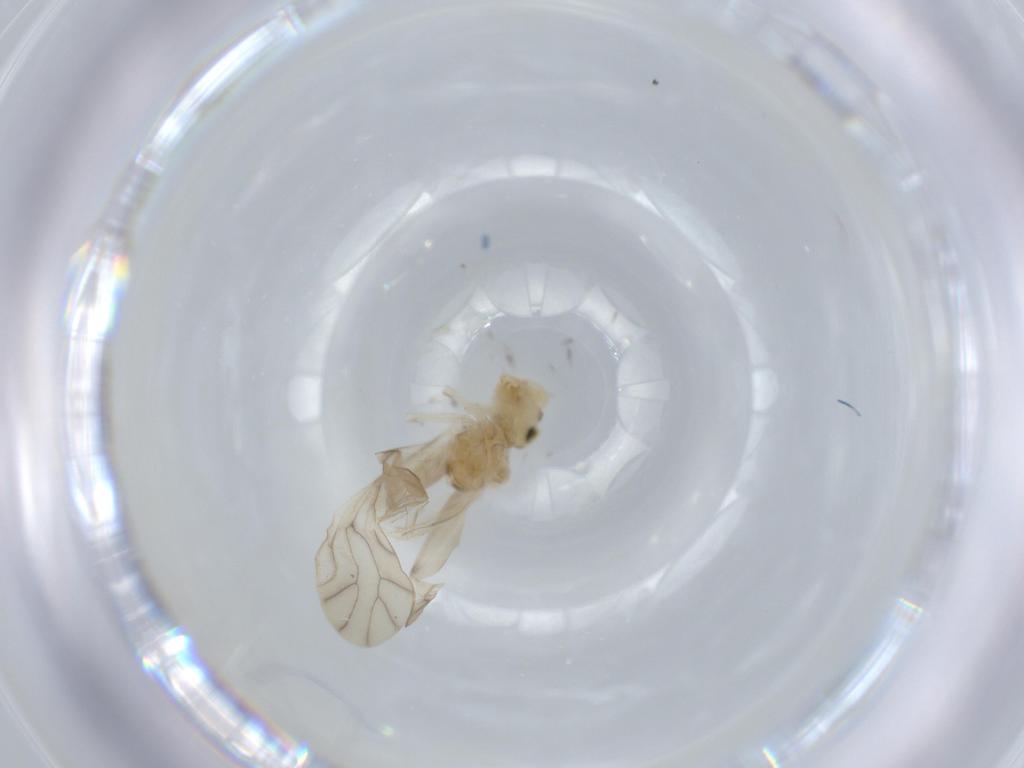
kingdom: Animalia
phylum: Arthropoda
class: Insecta
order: Psocodea
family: Caeciliusidae
